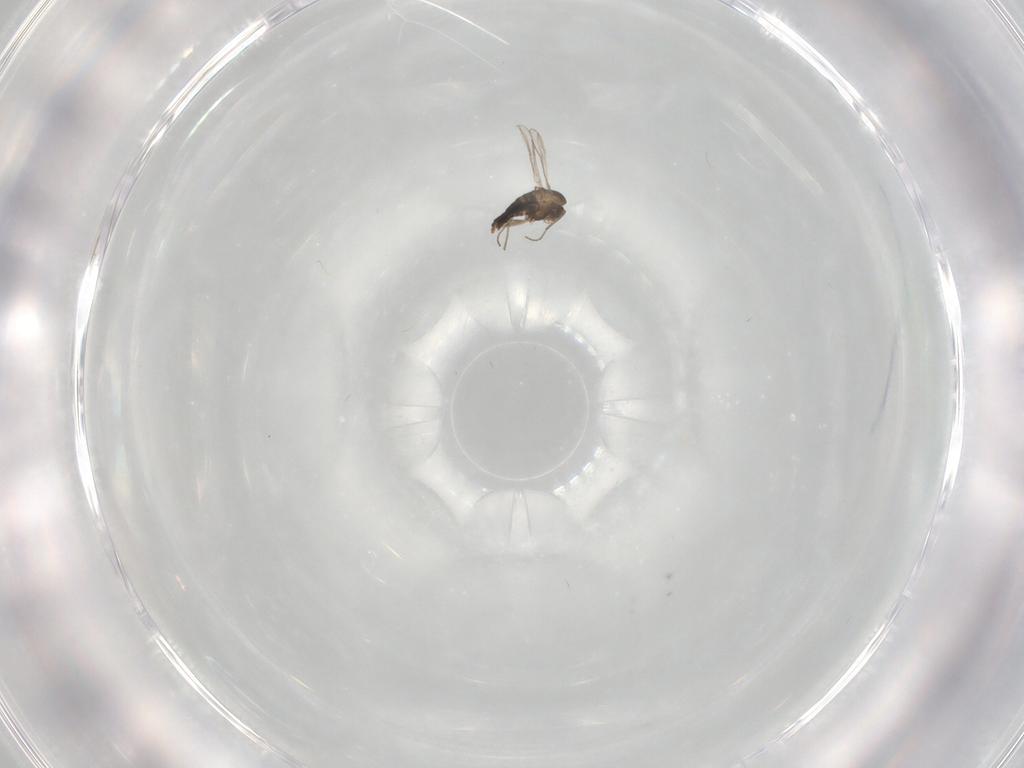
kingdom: Animalia
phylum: Arthropoda
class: Insecta
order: Diptera
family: Chironomidae
